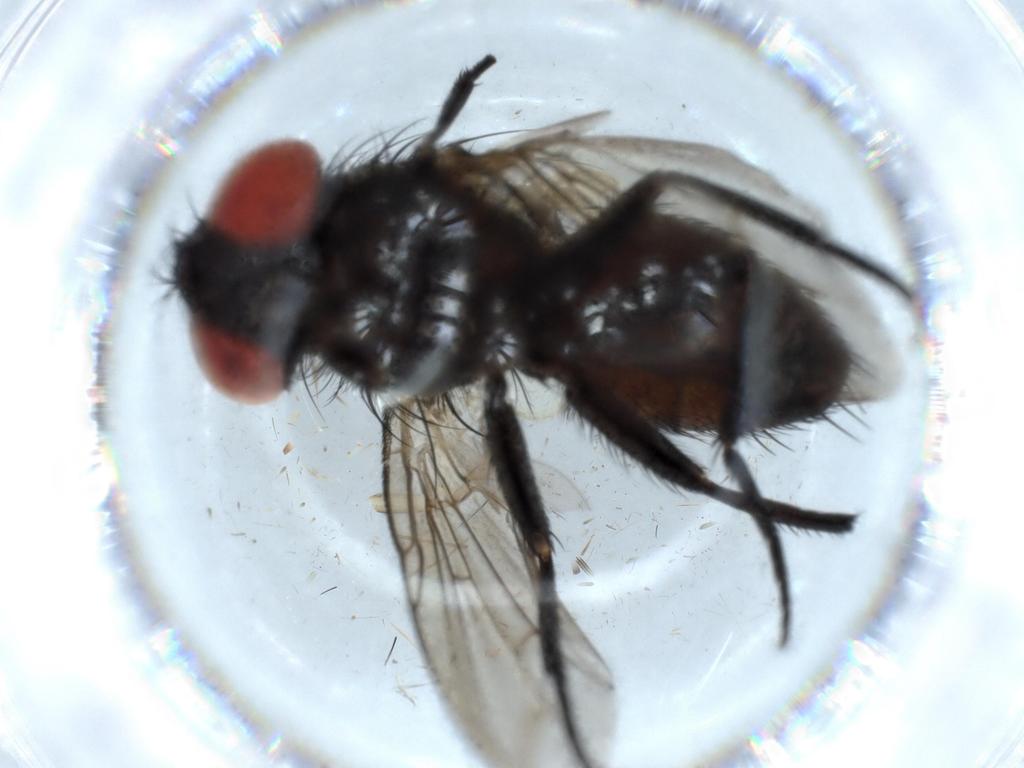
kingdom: Animalia
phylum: Arthropoda
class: Insecta
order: Diptera
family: Chironomidae
